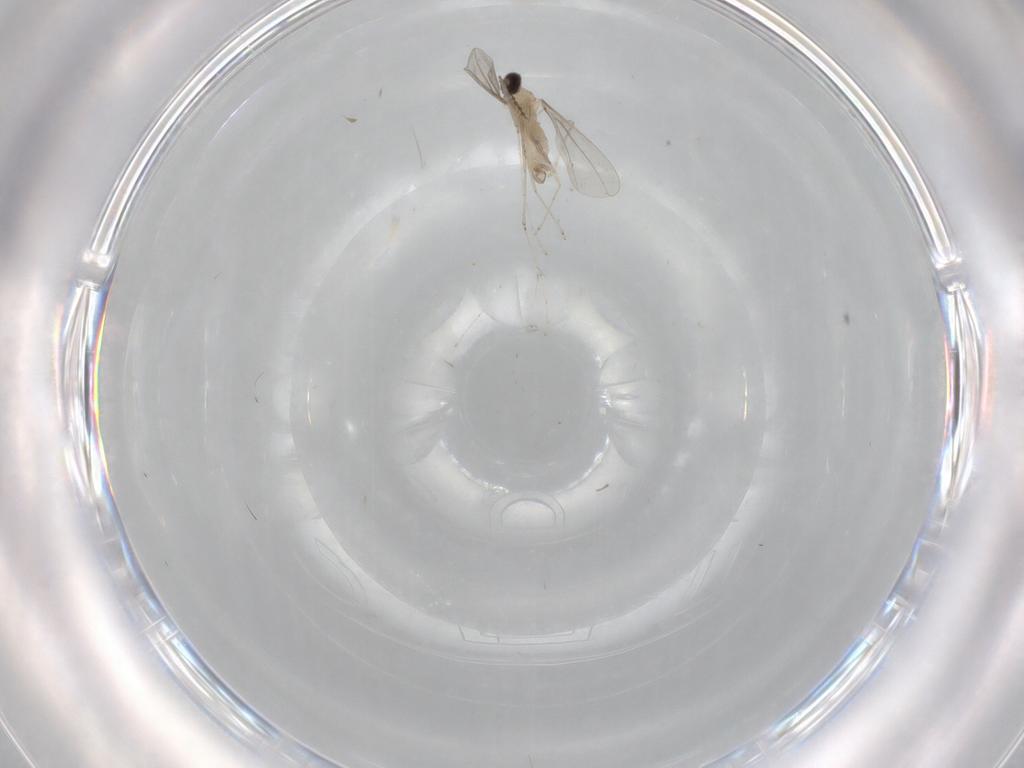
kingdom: Animalia
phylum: Arthropoda
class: Insecta
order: Diptera
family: Cecidomyiidae
